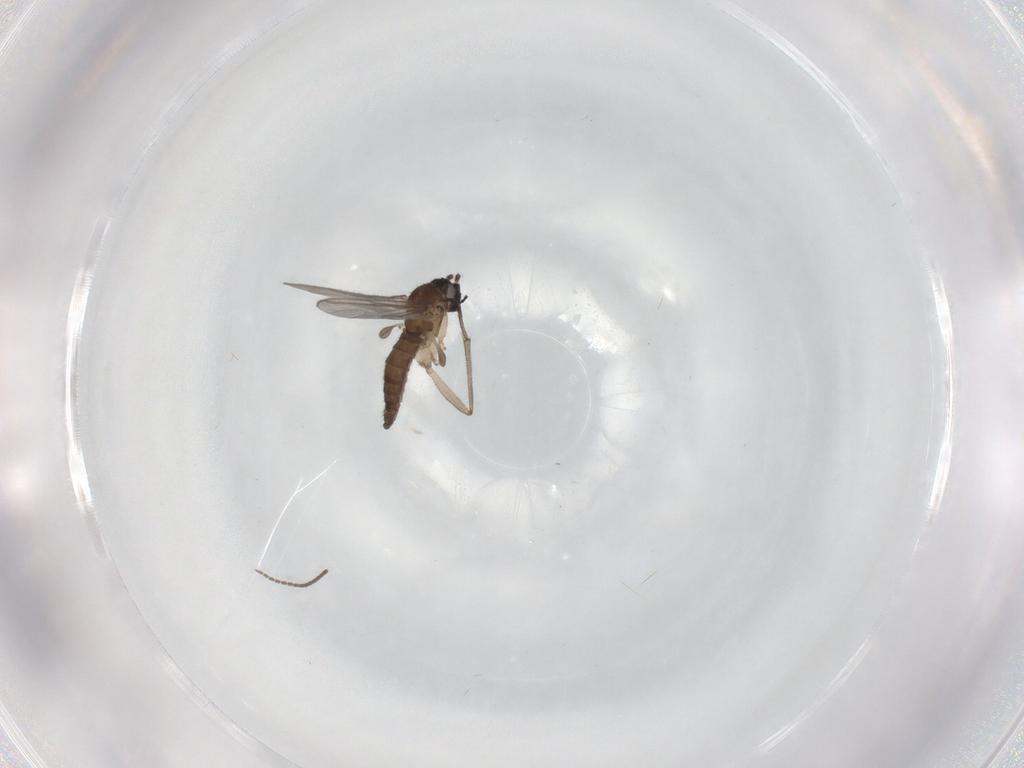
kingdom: Animalia
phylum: Arthropoda
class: Insecta
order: Diptera
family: Sciaridae
